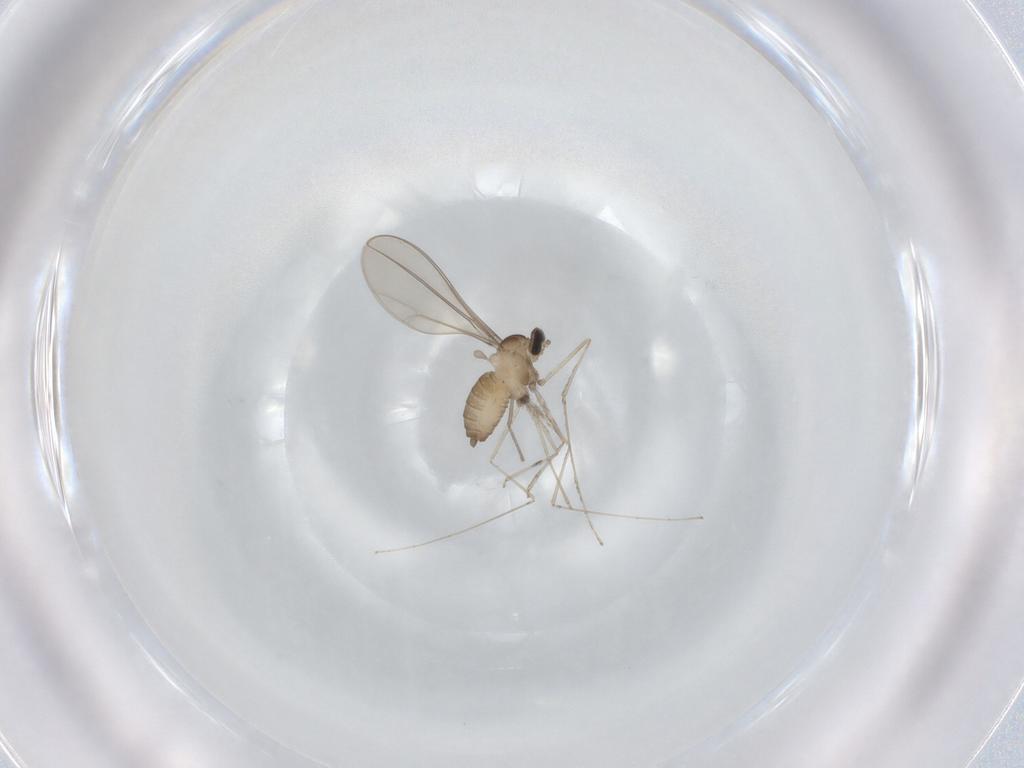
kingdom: Animalia
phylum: Arthropoda
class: Insecta
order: Diptera
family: Cecidomyiidae
